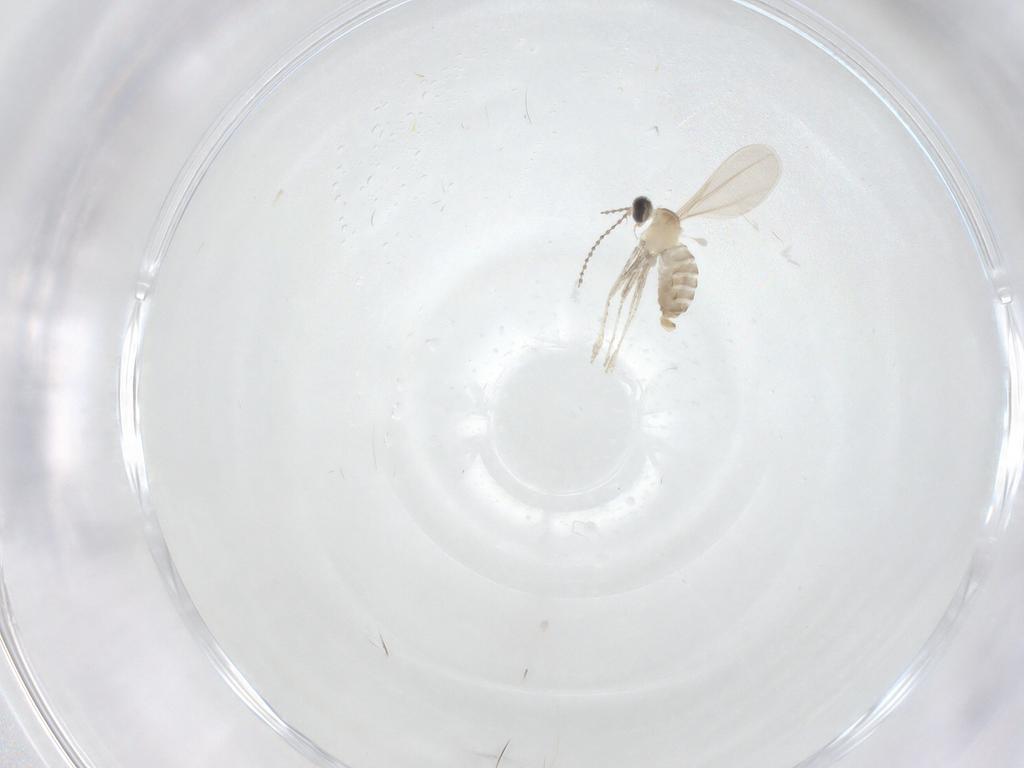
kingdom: Animalia
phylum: Arthropoda
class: Insecta
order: Diptera
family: Cecidomyiidae
